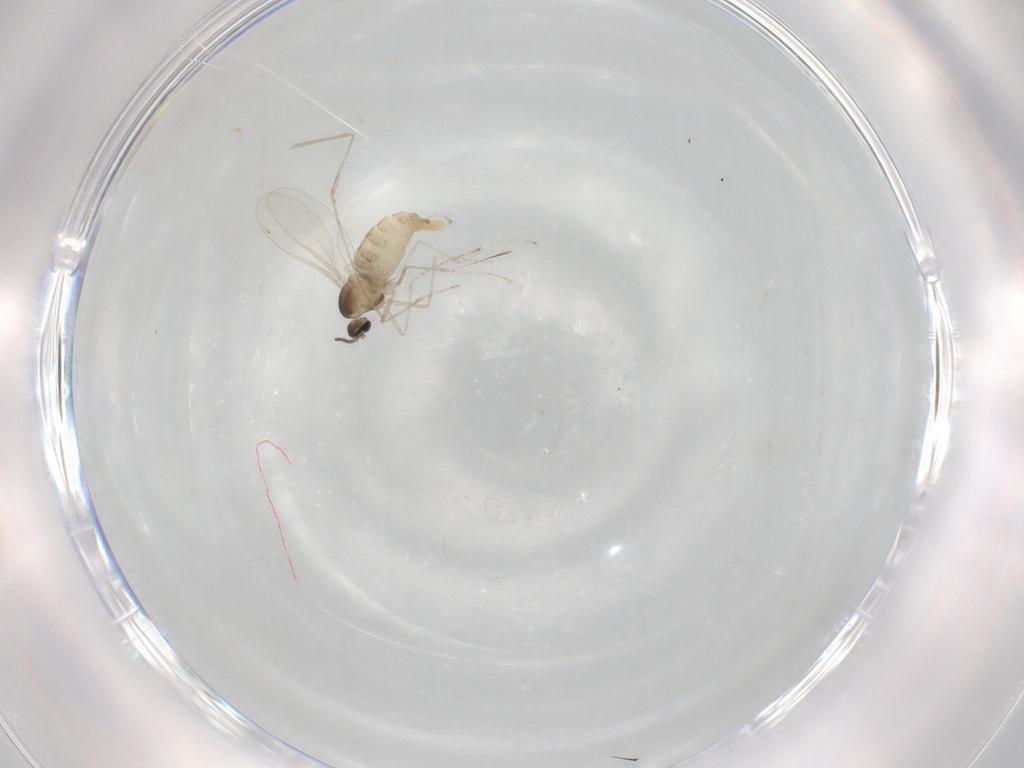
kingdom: Animalia
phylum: Arthropoda
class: Insecta
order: Diptera
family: Cecidomyiidae
